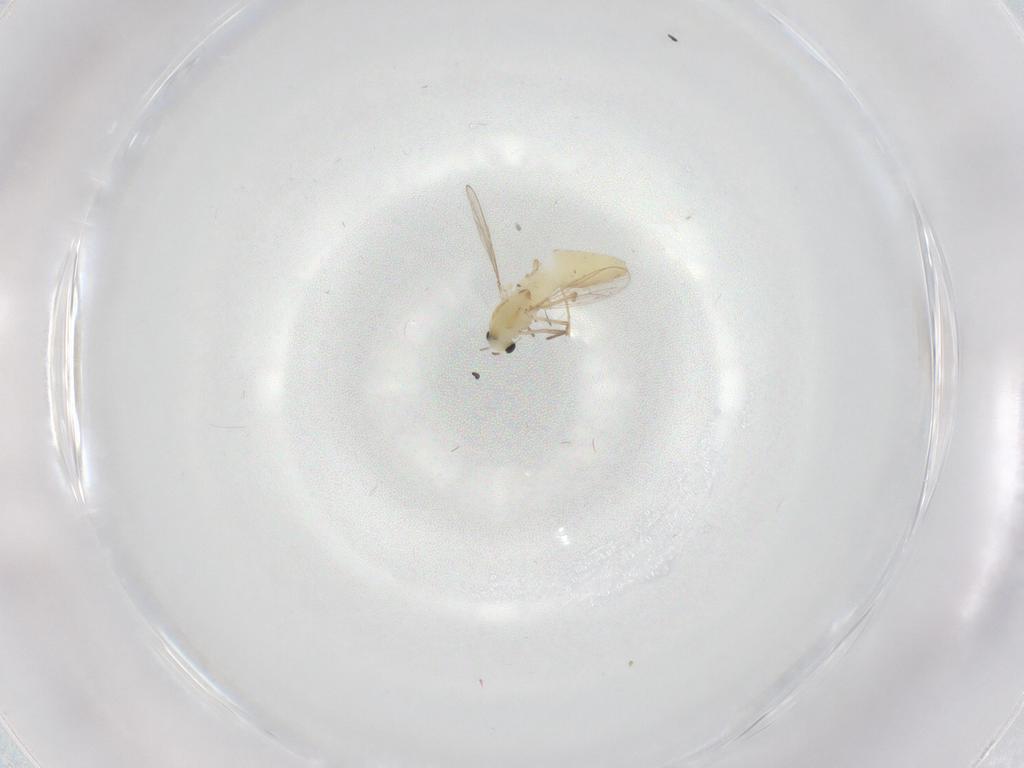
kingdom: Animalia
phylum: Arthropoda
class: Insecta
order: Diptera
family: Chironomidae
